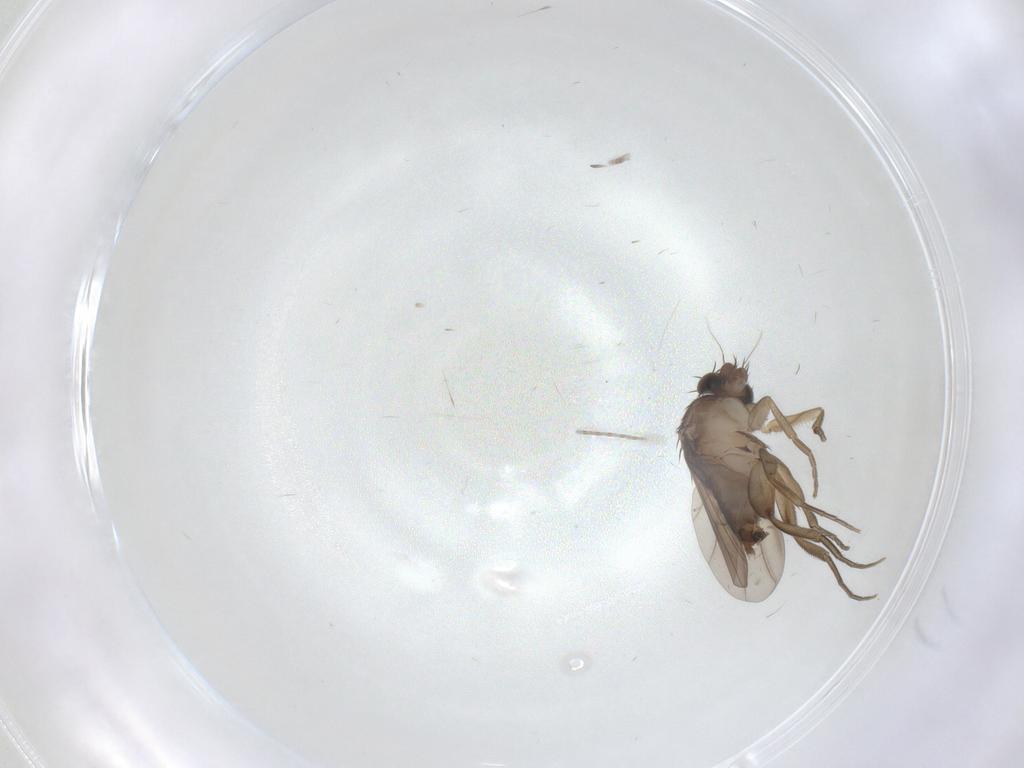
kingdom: Animalia
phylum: Arthropoda
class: Insecta
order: Diptera
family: Phoridae
